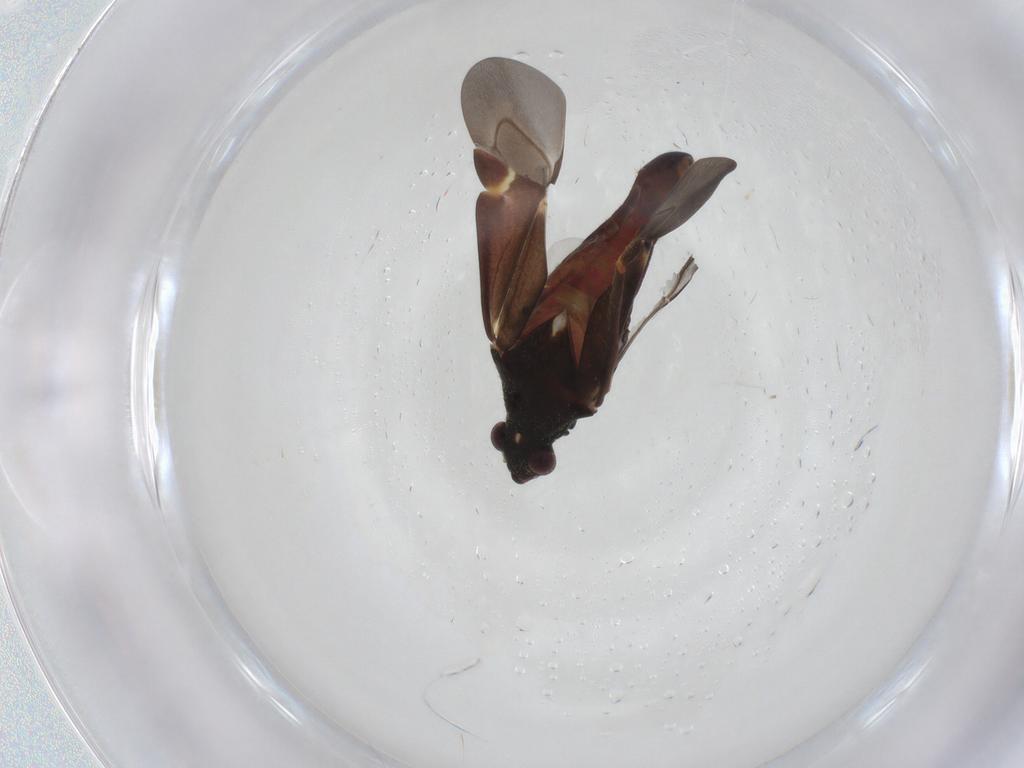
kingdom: Animalia
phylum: Arthropoda
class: Insecta
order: Hemiptera
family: Miridae
